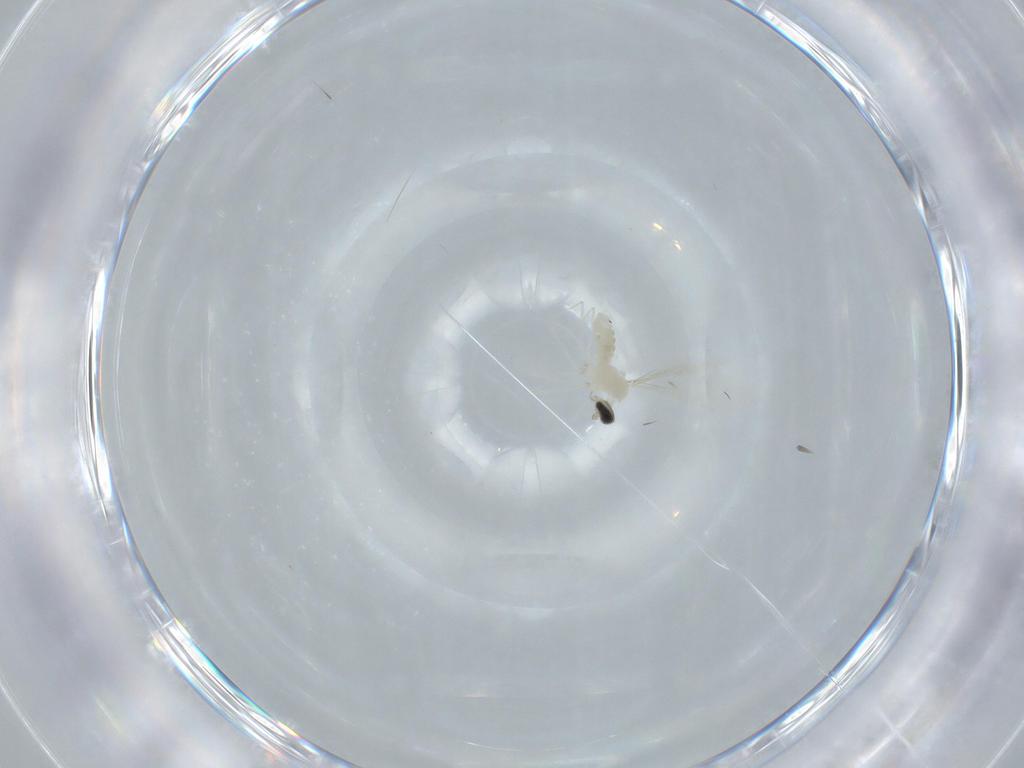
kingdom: Animalia
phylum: Arthropoda
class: Insecta
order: Diptera
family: Cecidomyiidae
